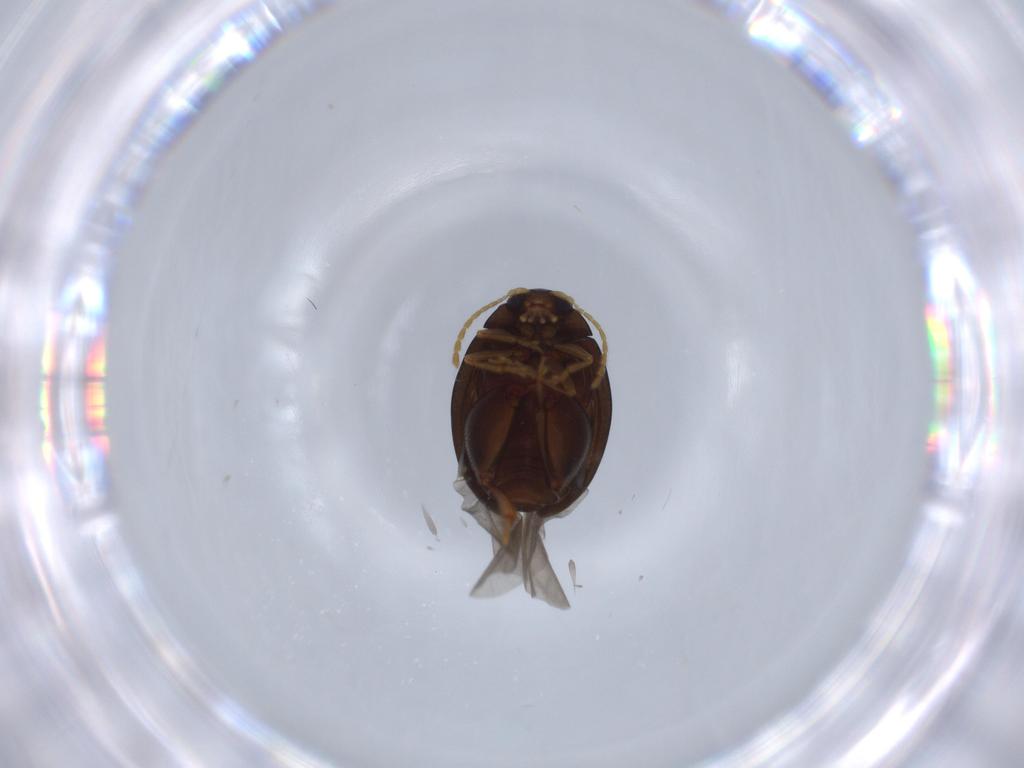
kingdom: Animalia
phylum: Arthropoda
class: Insecta
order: Coleoptera
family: Chrysomelidae
